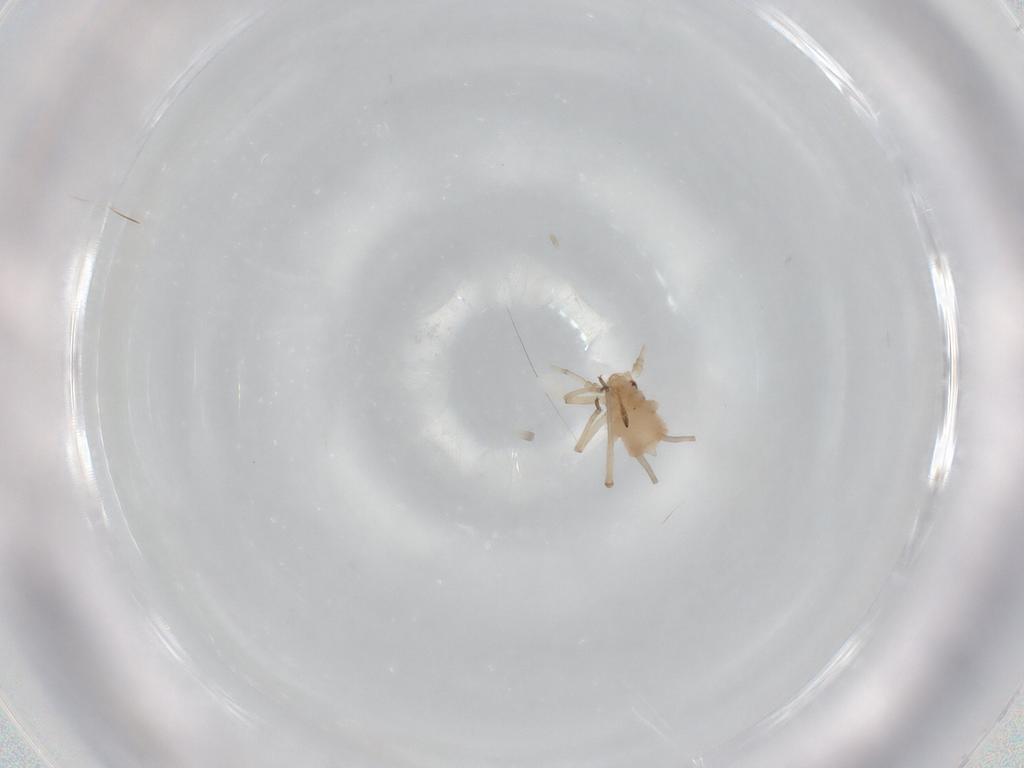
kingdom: Animalia
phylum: Arthropoda
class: Insecta
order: Hemiptera
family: Aphididae
